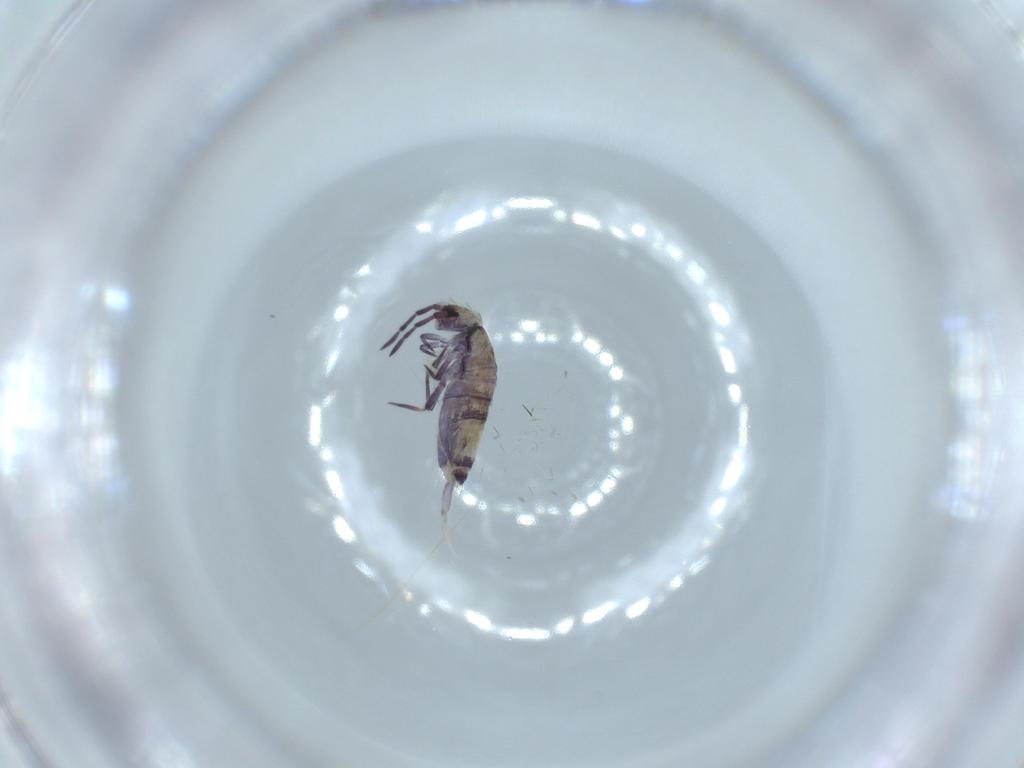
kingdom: Animalia
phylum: Arthropoda
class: Collembola
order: Entomobryomorpha
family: Entomobryidae
